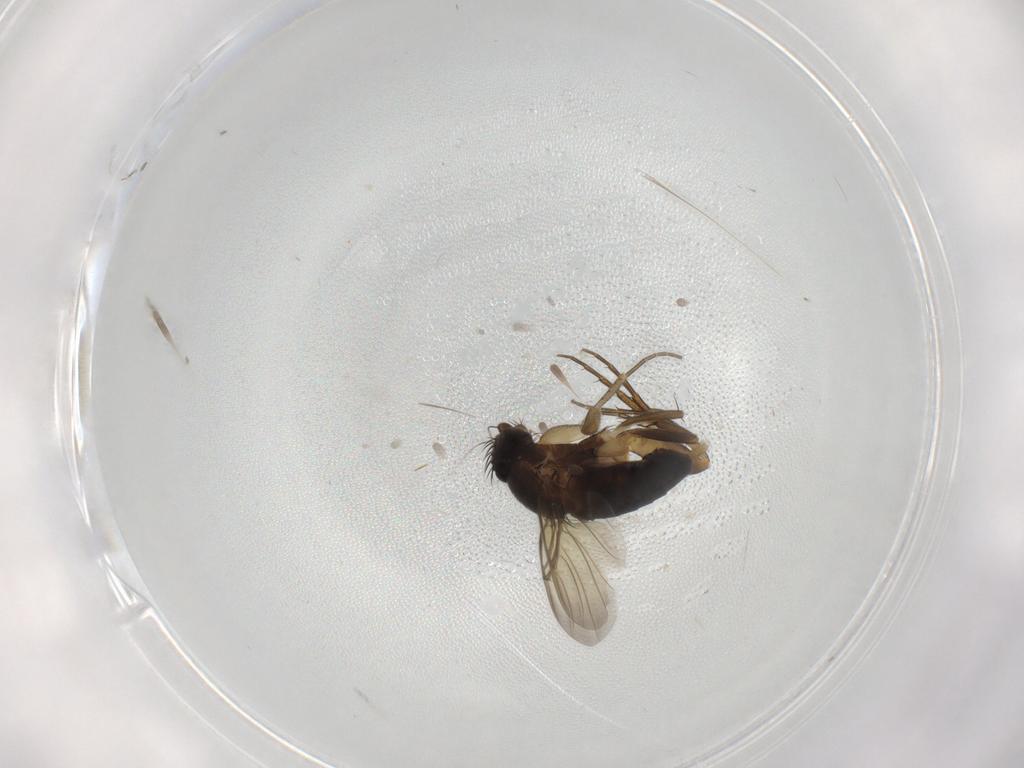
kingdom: Animalia
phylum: Arthropoda
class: Insecta
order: Diptera
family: Phoridae
